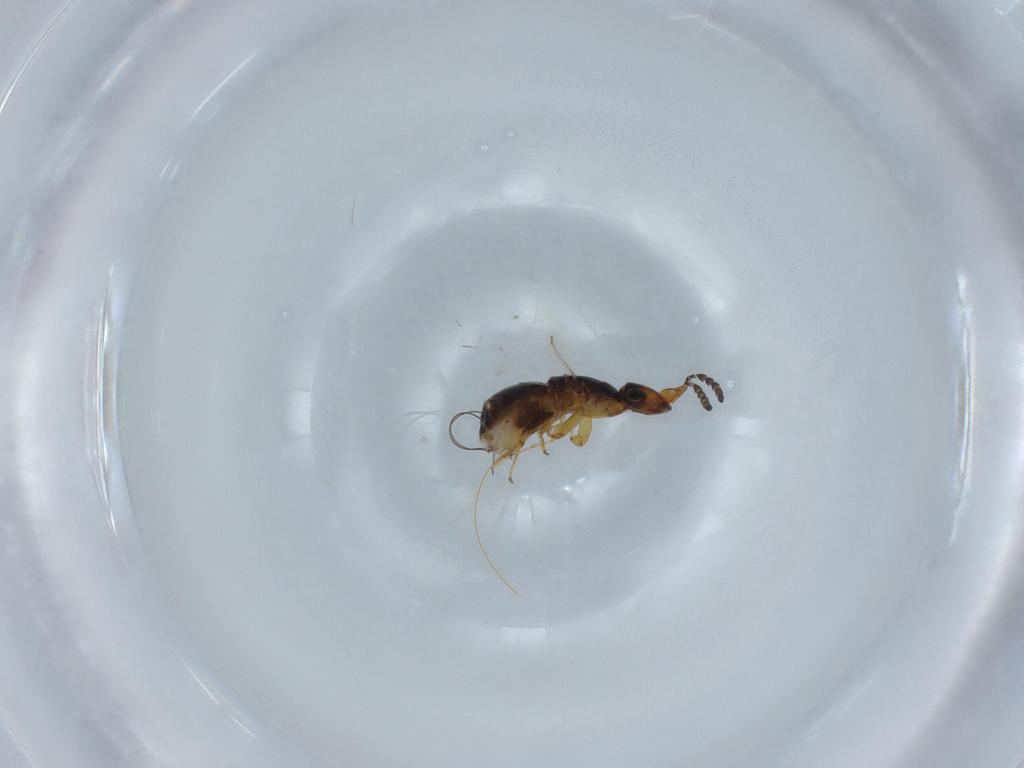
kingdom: Animalia
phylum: Arthropoda
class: Insecta
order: Hymenoptera
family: Agaonidae
